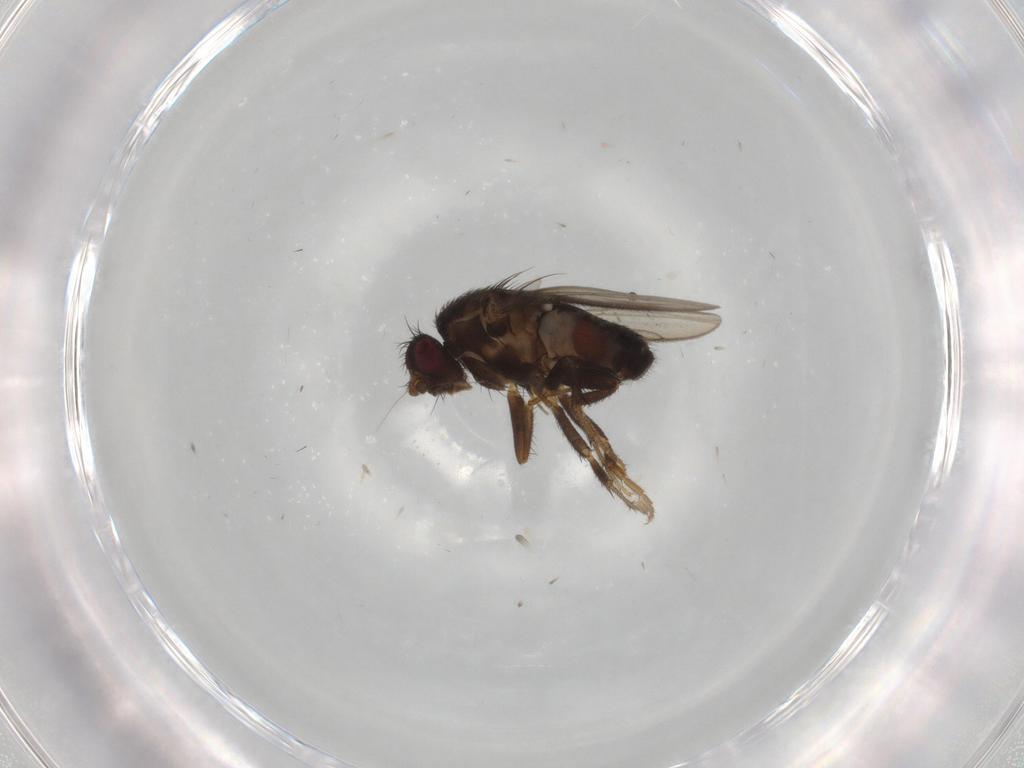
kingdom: Animalia
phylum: Arthropoda
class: Insecta
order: Diptera
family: Sphaeroceridae
